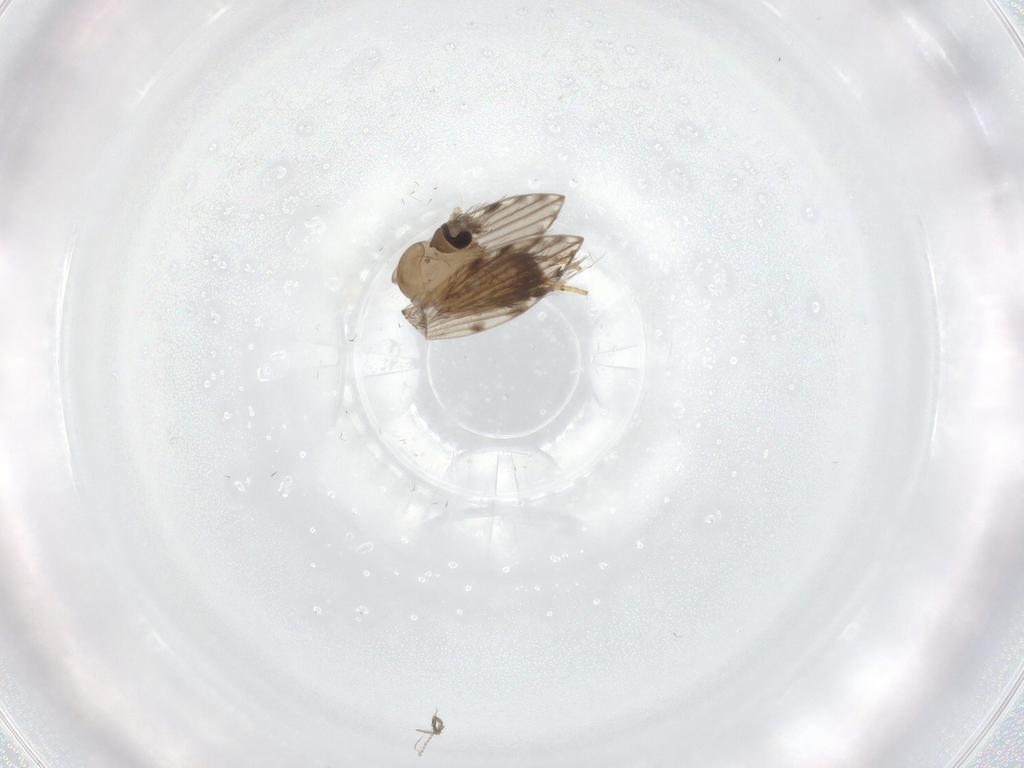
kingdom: Animalia
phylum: Arthropoda
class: Insecta
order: Diptera
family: Psychodidae
